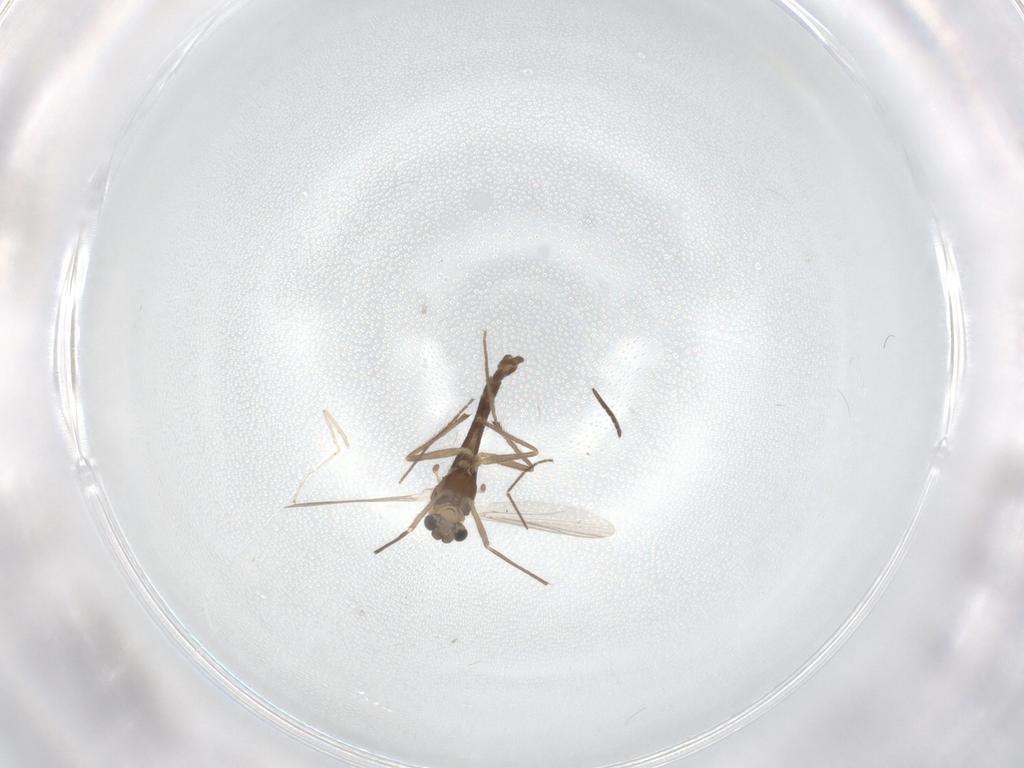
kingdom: Animalia
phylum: Arthropoda
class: Insecta
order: Diptera
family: Chironomidae
